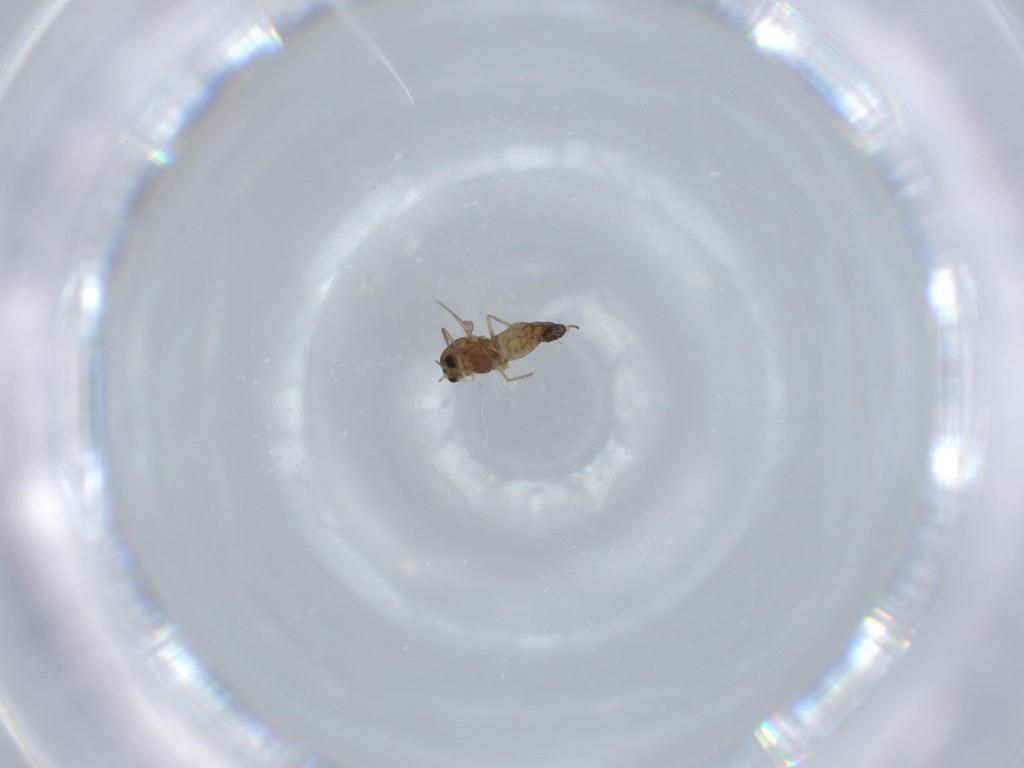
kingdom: Animalia
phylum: Arthropoda
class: Insecta
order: Diptera
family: Chironomidae
